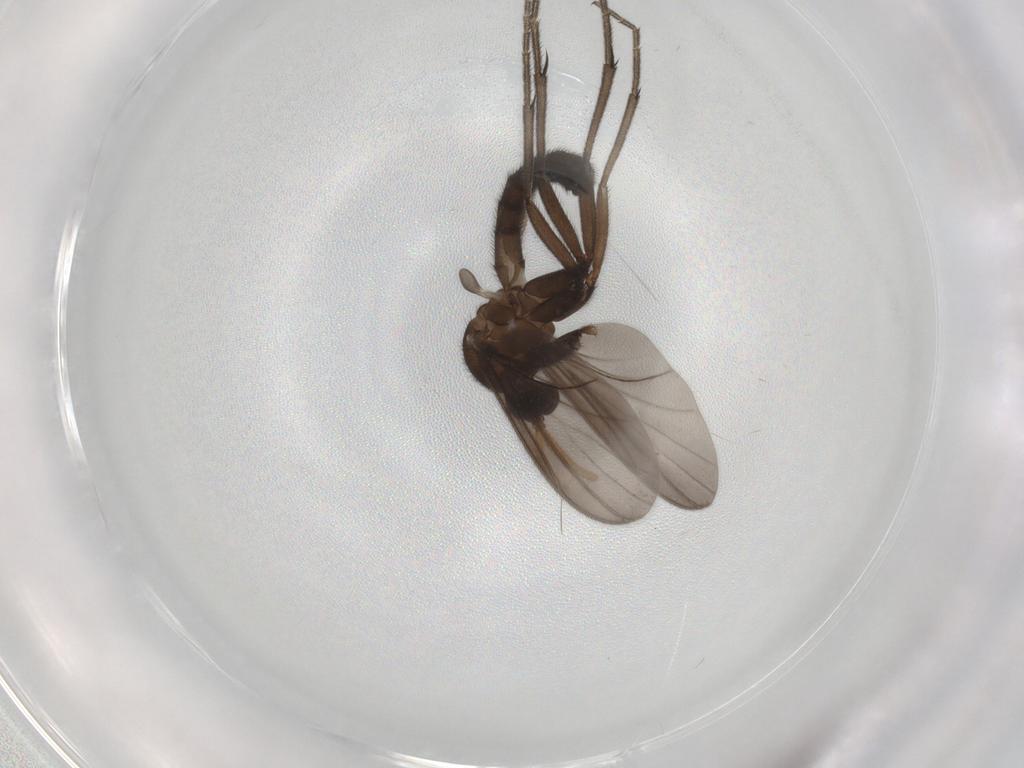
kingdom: Animalia
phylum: Arthropoda
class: Insecta
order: Diptera
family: Mycetophilidae
